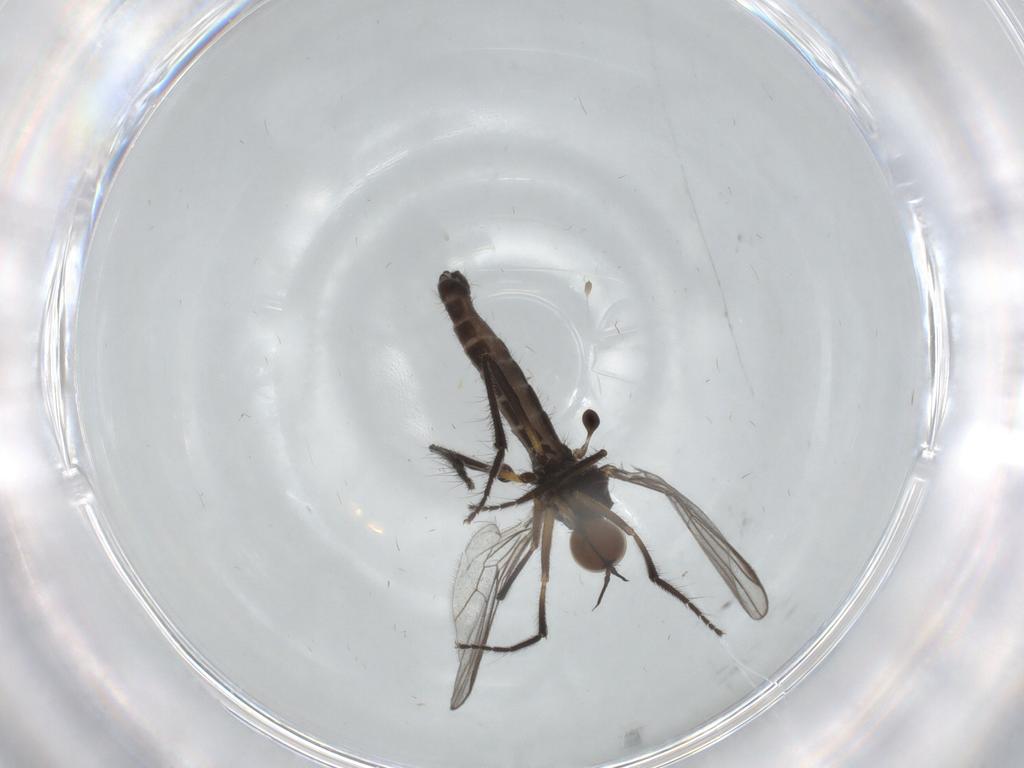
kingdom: Animalia
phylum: Arthropoda
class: Insecta
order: Diptera
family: Empididae
